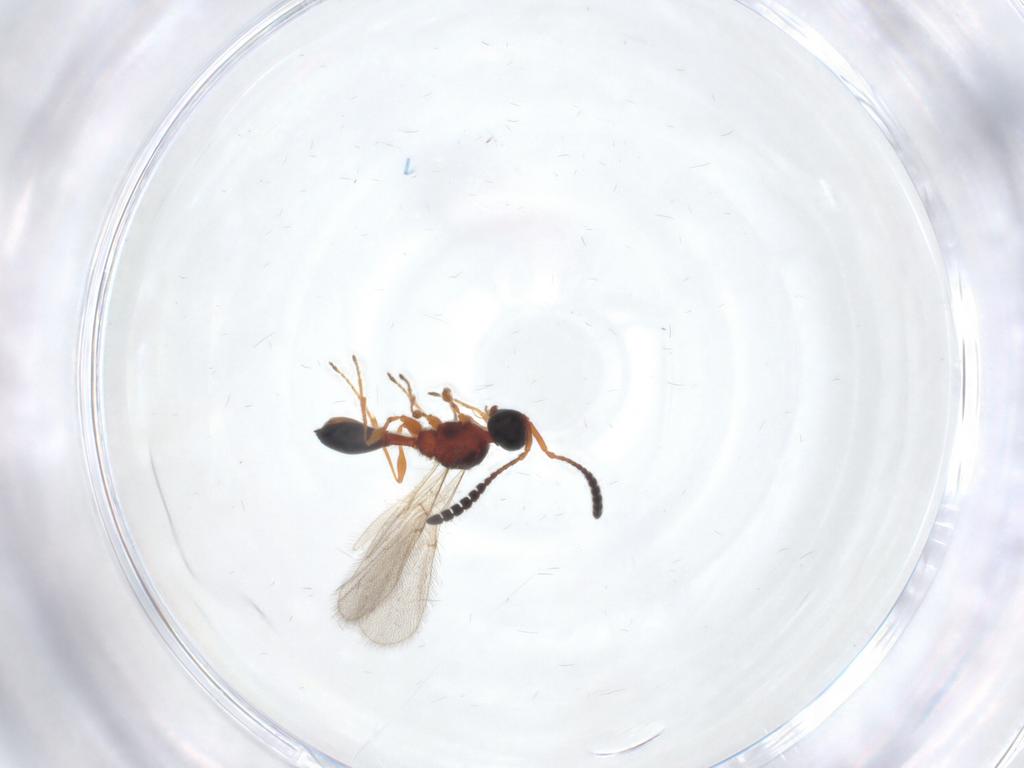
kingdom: Animalia
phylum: Arthropoda
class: Insecta
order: Hymenoptera
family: Diapriidae
